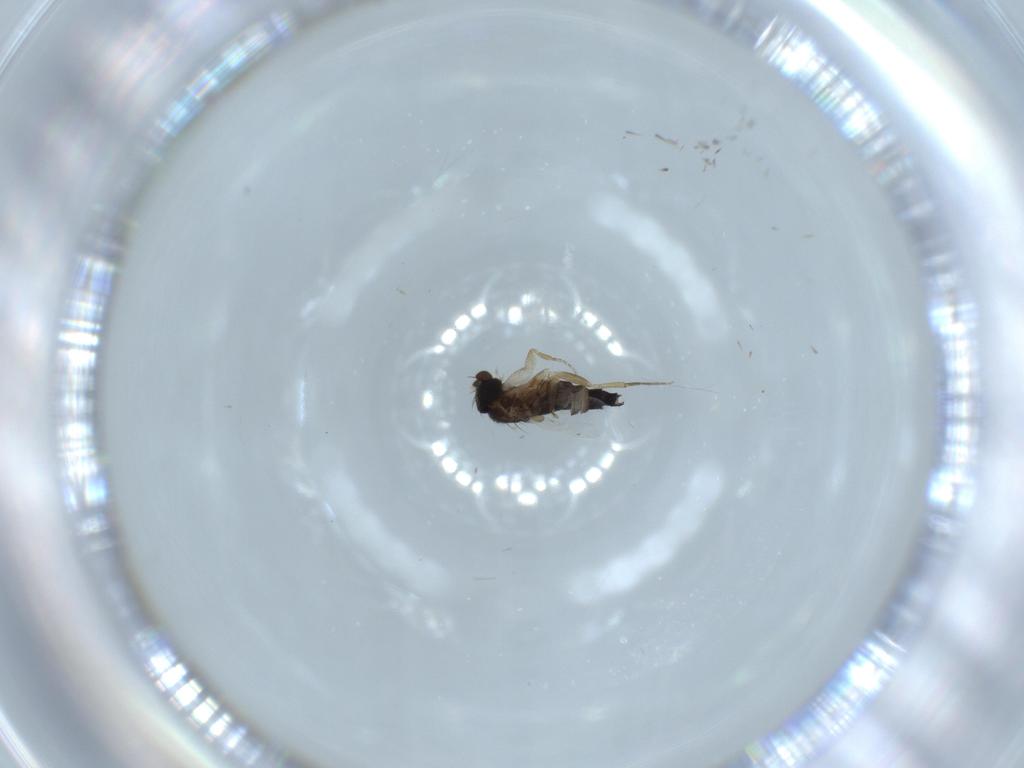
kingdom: Animalia
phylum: Arthropoda
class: Insecta
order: Diptera
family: Phoridae
